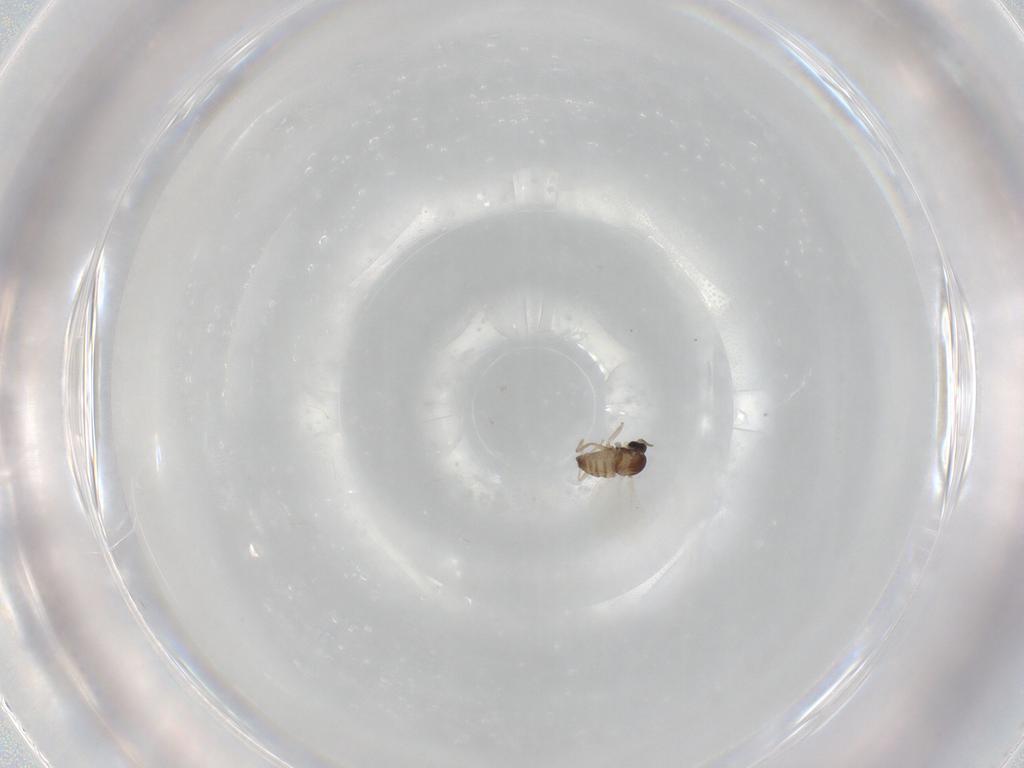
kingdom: Animalia
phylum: Arthropoda
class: Insecta
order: Diptera
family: Cecidomyiidae
